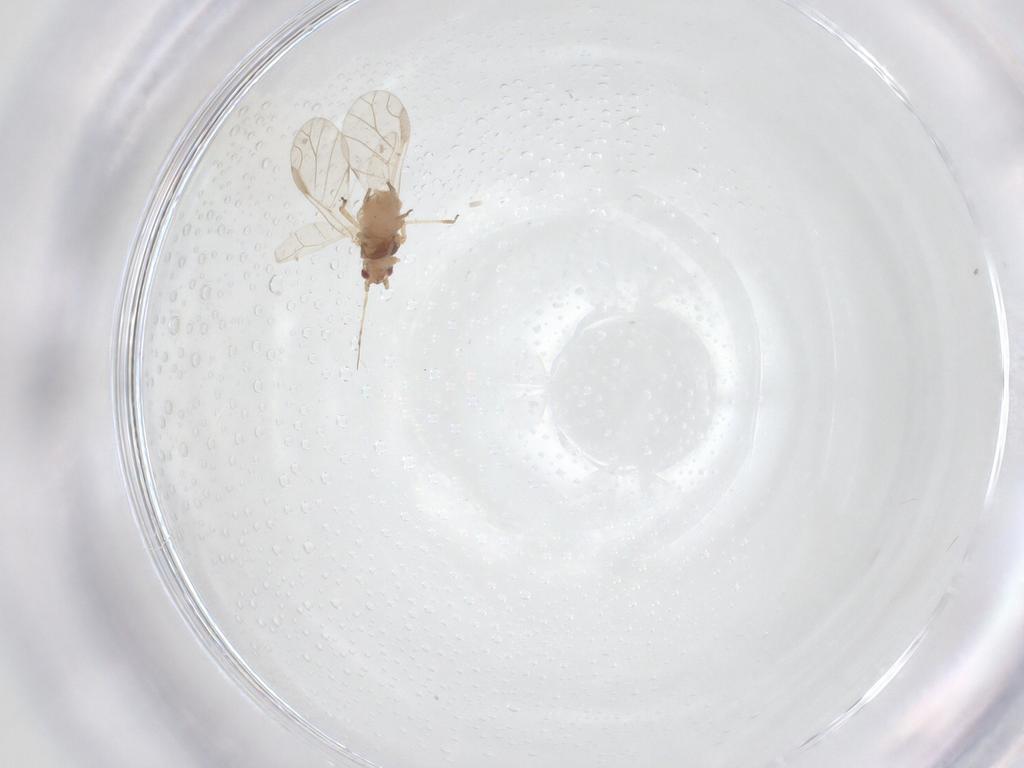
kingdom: Animalia
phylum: Arthropoda
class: Insecta
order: Hemiptera
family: Aphididae
